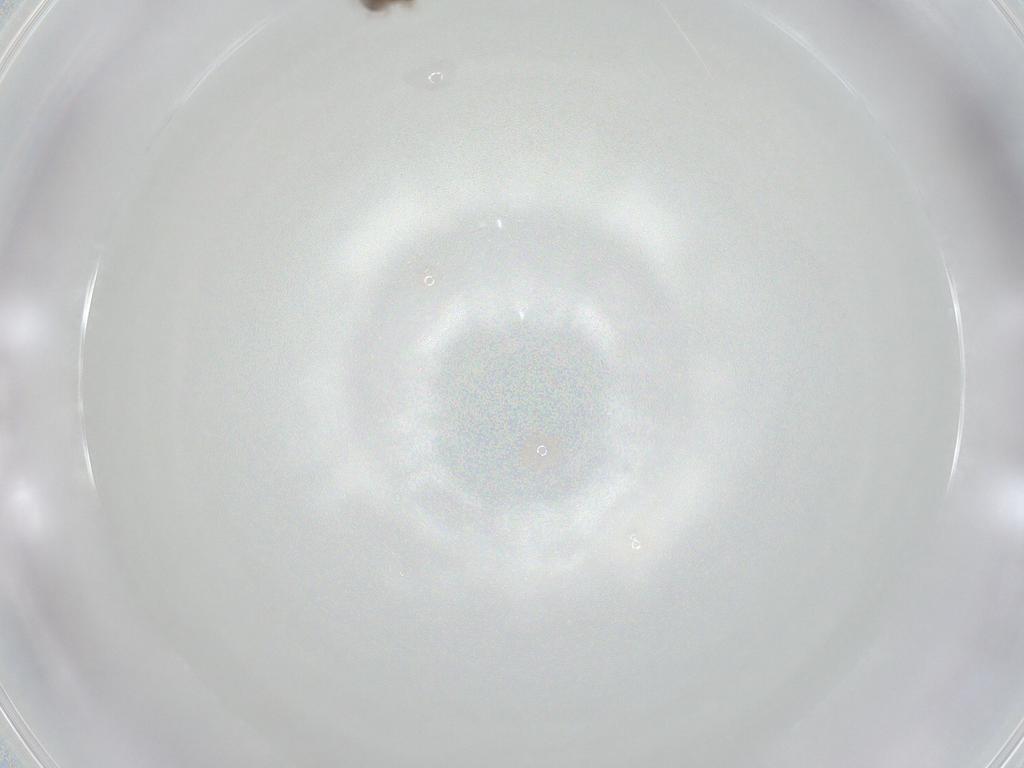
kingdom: Animalia
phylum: Arthropoda
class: Insecta
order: Diptera
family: Ceratopogonidae
